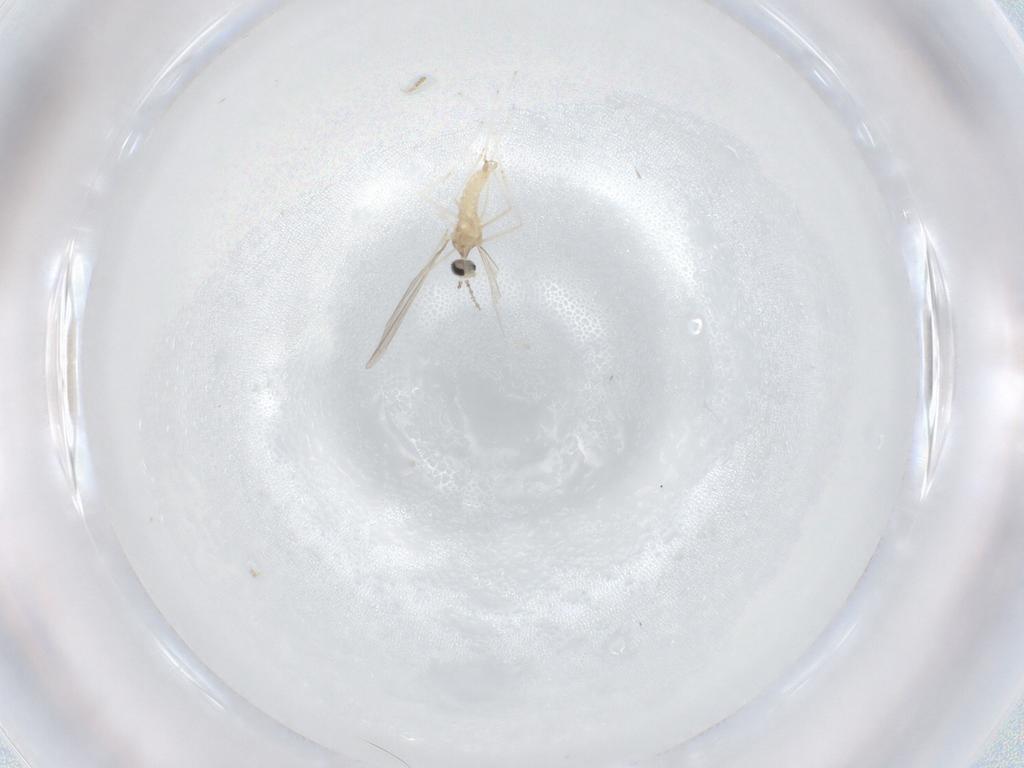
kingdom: Animalia
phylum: Arthropoda
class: Insecta
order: Diptera
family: Cecidomyiidae
